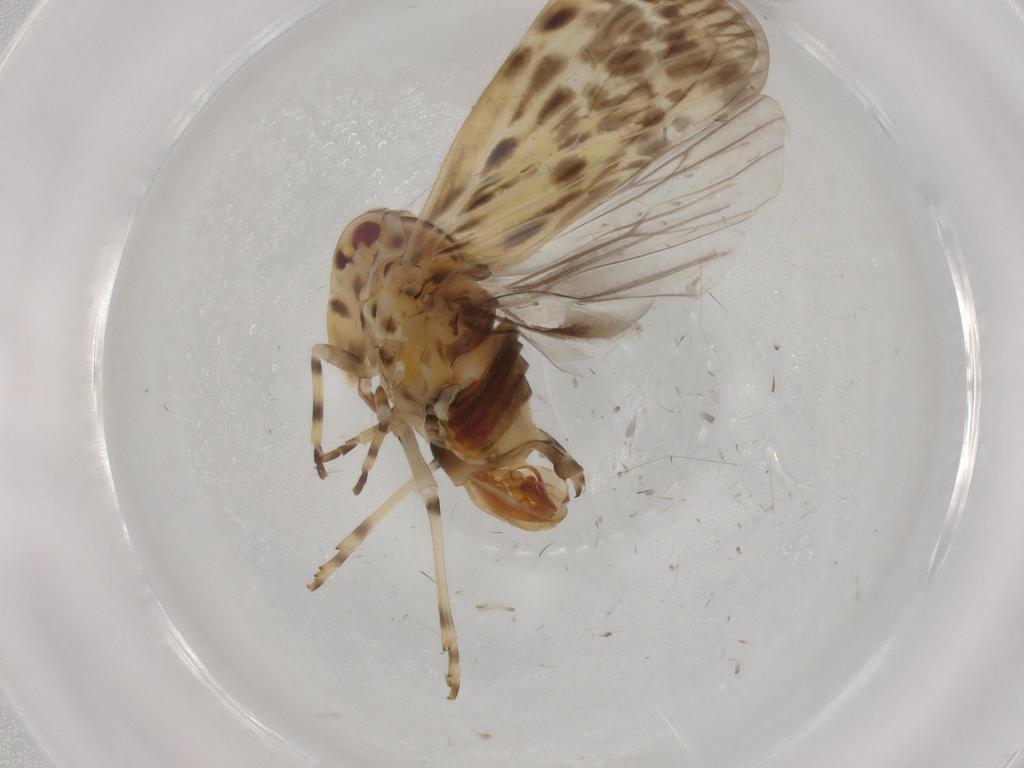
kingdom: Animalia
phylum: Arthropoda
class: Insecta
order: Hemiptera
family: Derbidae
